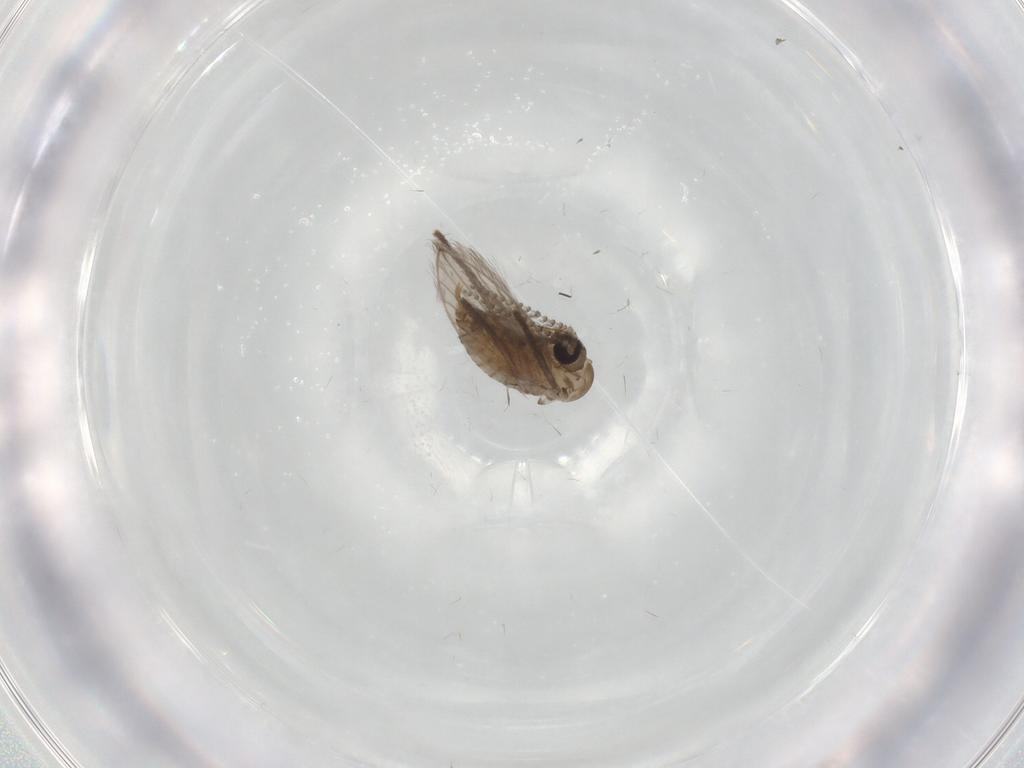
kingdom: Animalia
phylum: Arthropoda
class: Insecta
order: Diptera
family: Psychodidae
